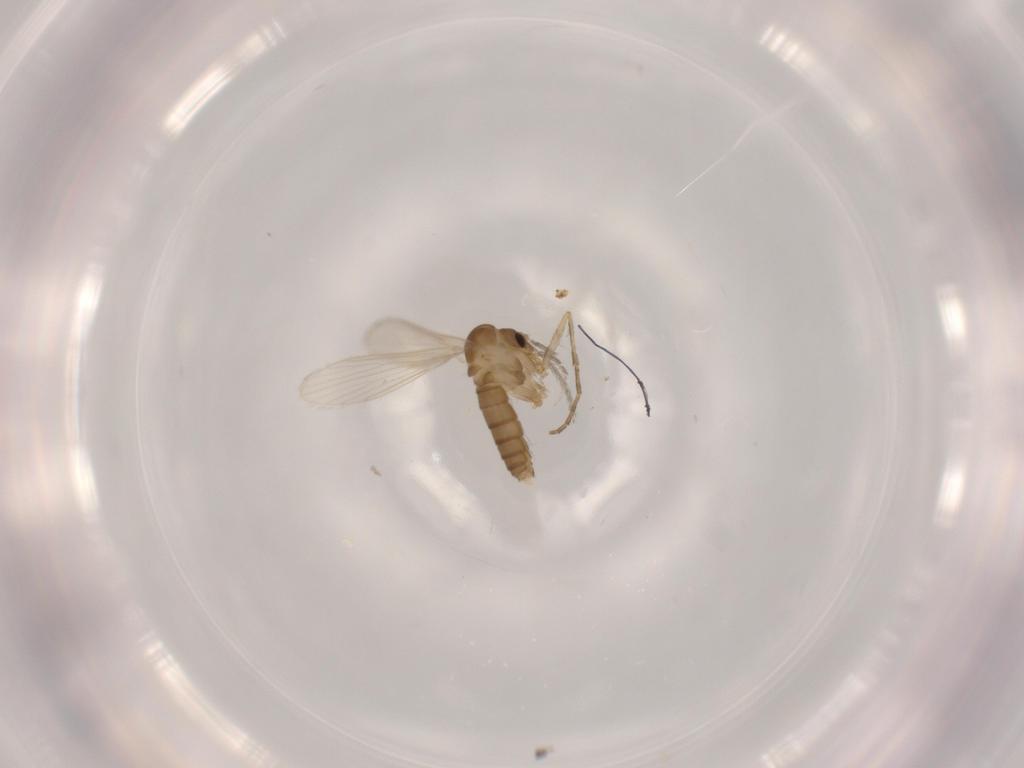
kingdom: Animalia
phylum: Arthropoda
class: Insecta
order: Diptera
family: Psychodidae
